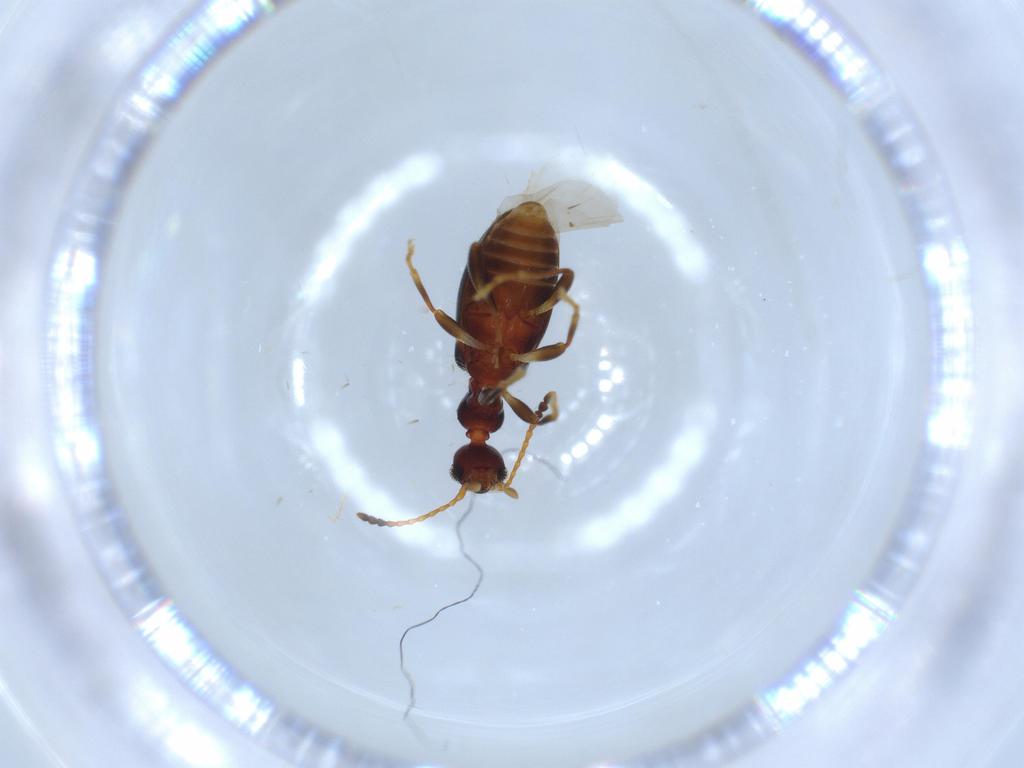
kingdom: Animalia
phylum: Arthropoda
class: Insecta
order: Coleoptera
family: Anthicidae
